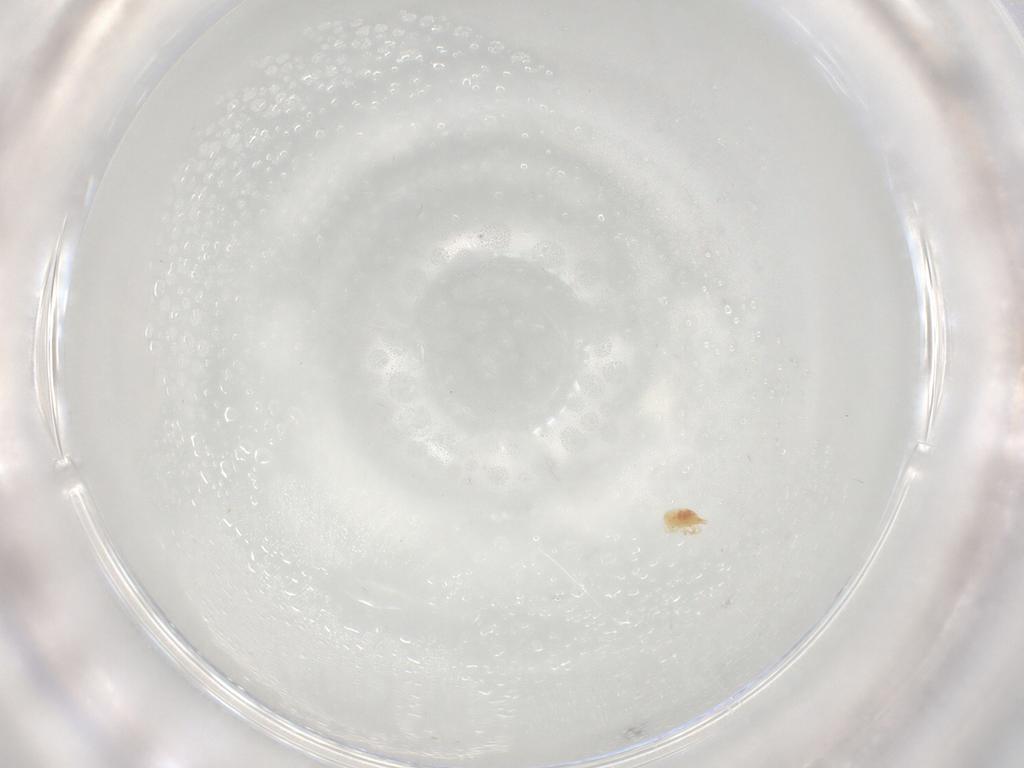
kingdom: Animalia
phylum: Arthropoda
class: Arachnida
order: Trombidiformes
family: Cunaxidae
